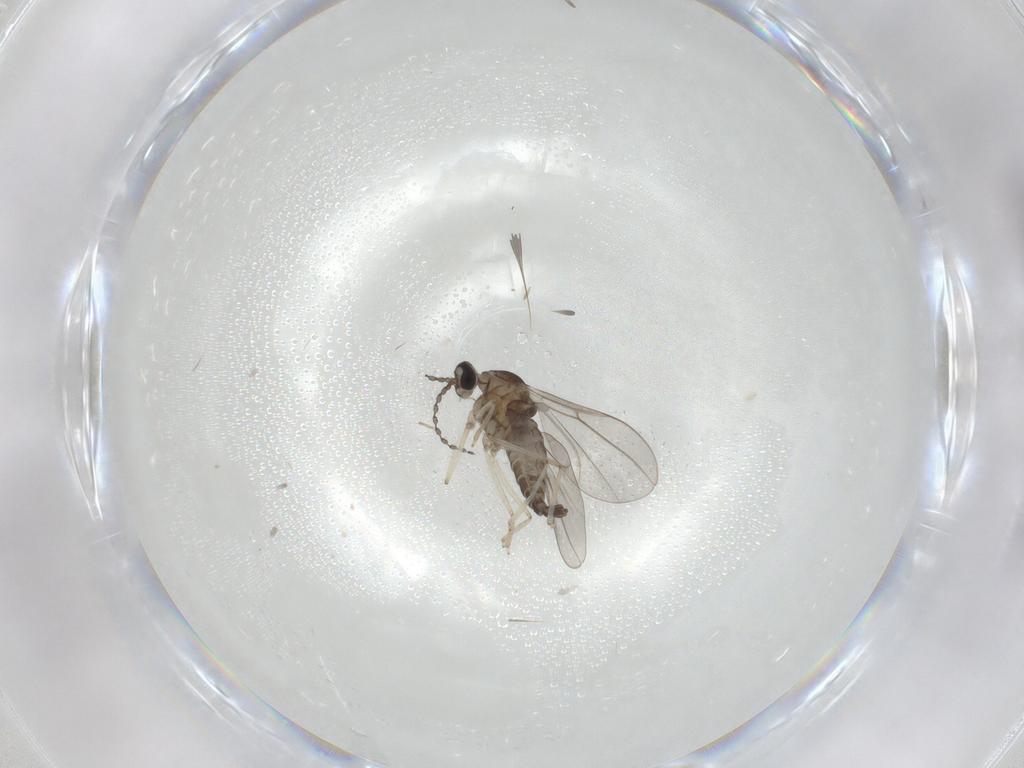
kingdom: Animalia
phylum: Arthropoda
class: Insecta
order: Diptera
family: Cecidomyiidae
